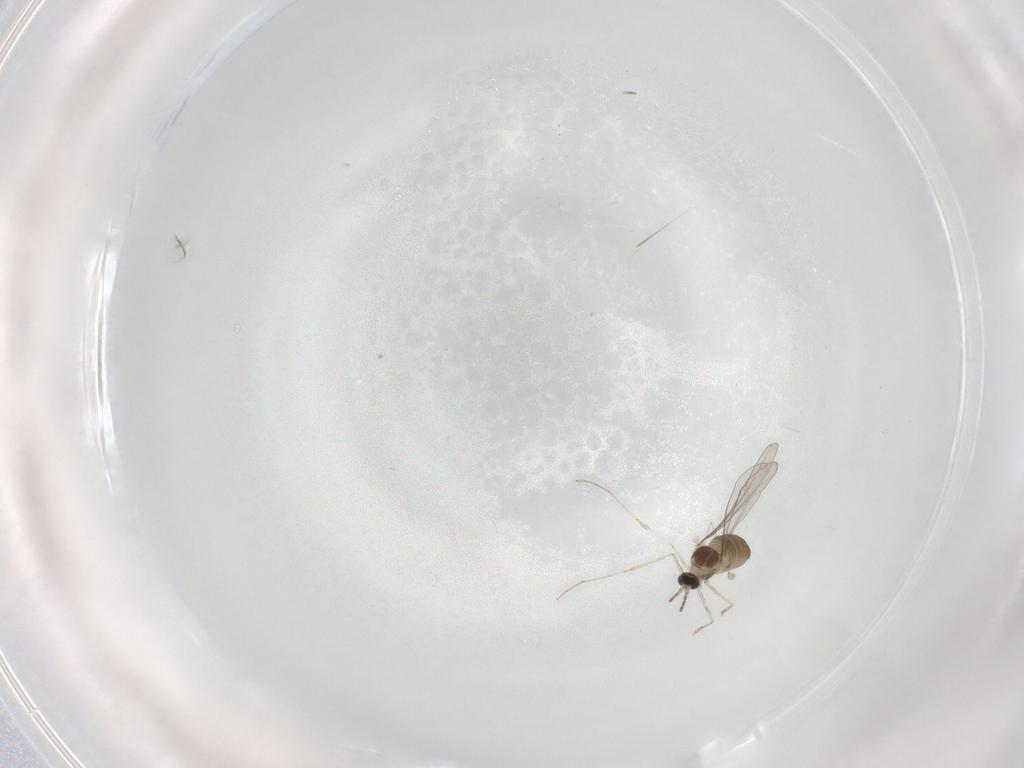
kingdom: Animalia
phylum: Arthropoda
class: Insecta
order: Diptera
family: Cecidomyiidae
